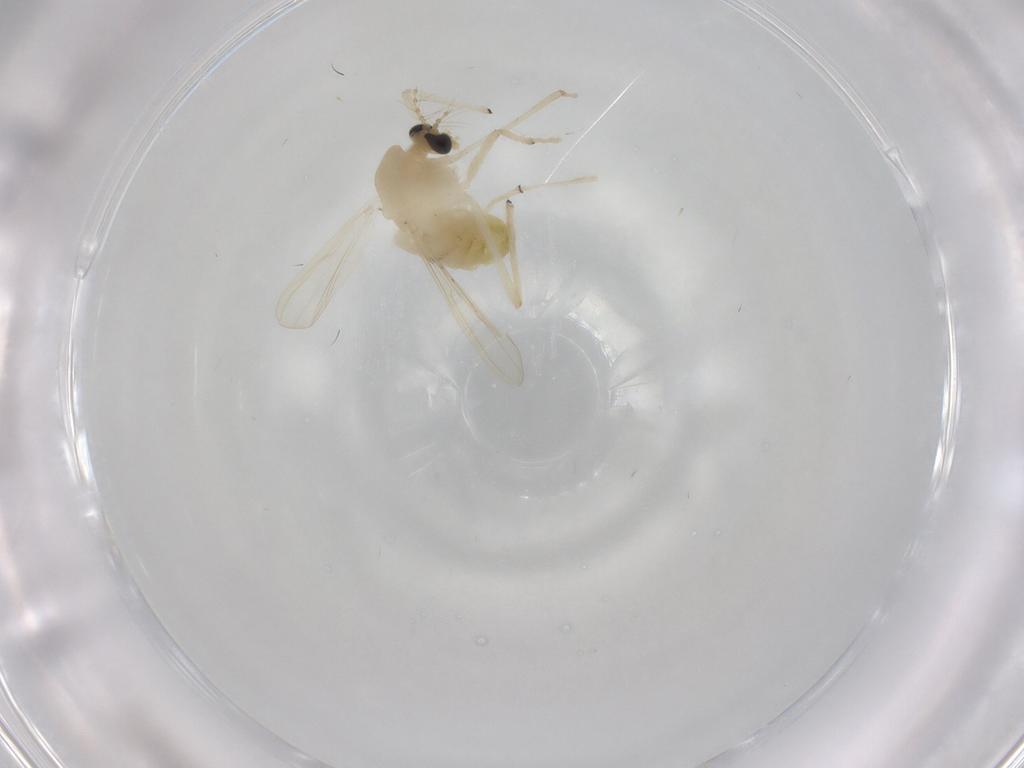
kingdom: Animalia
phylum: Arthropoda
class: Insecta
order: Diptera
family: Chironomidae
